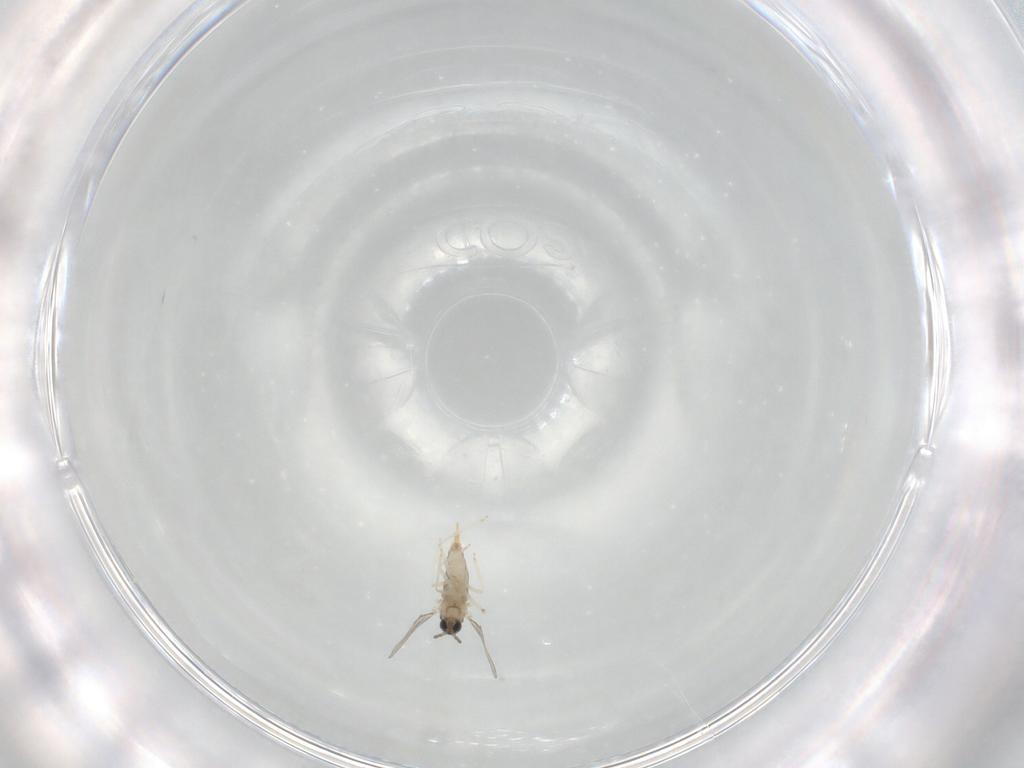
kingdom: Animalia
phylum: Arthropoda
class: Insecta
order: Diptera
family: Cecidomyiidae
